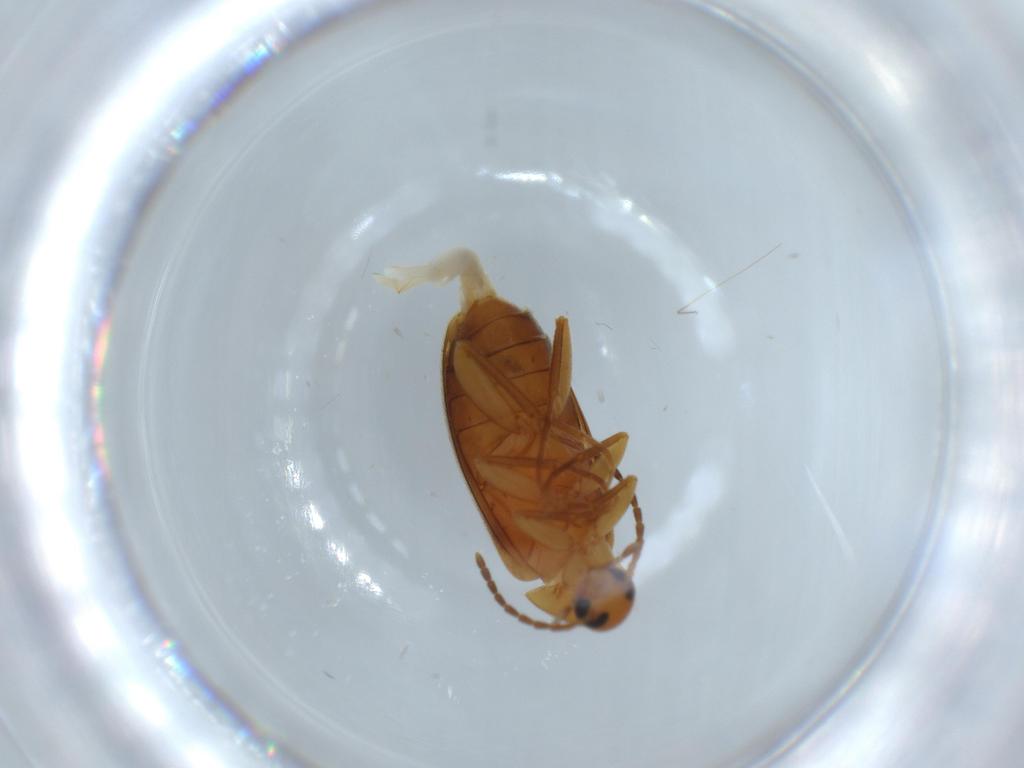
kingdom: Animalia
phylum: Arthropoda
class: Insecta
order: Coleoptera
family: Scraptiidae
